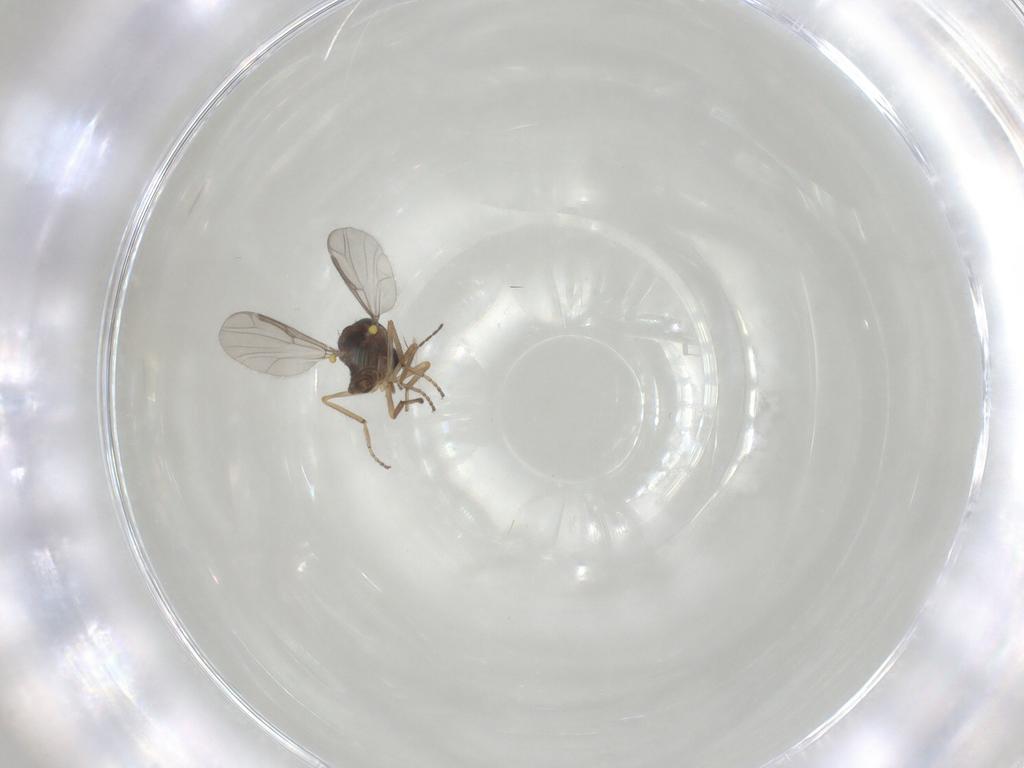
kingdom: Animalia
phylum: Arthropoda
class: Insecta
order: Diptera
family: Ceratopogonidae
